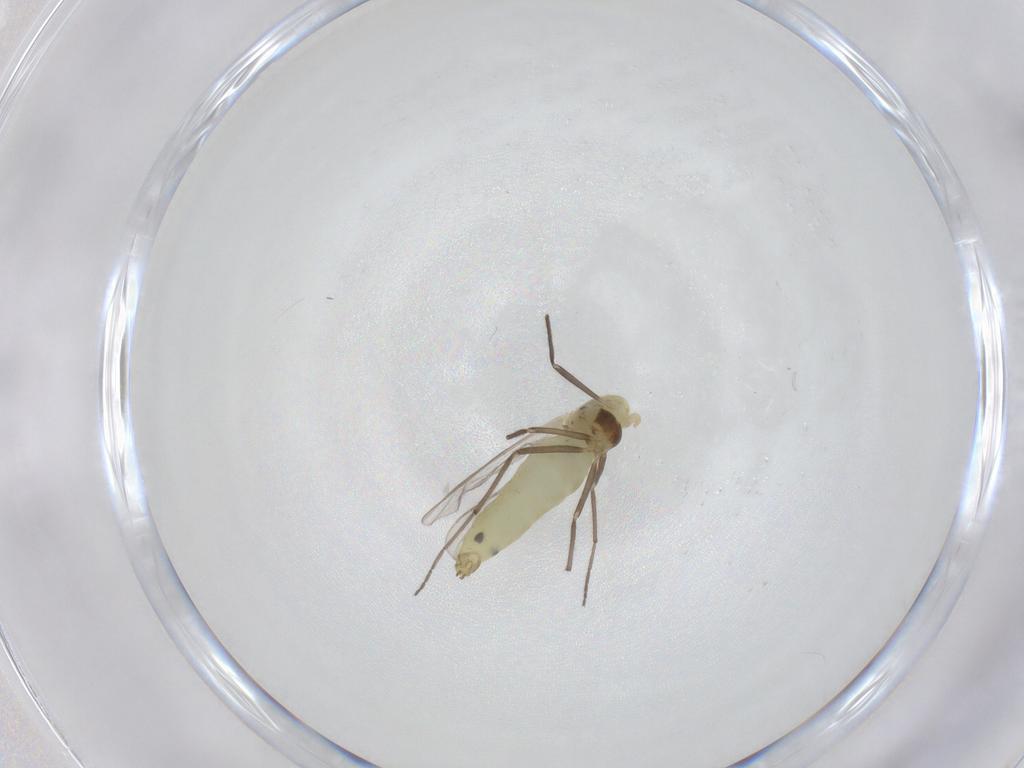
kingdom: Animalia
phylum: Arthropoda
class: Insecta
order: Diptera
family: Chironomidae
